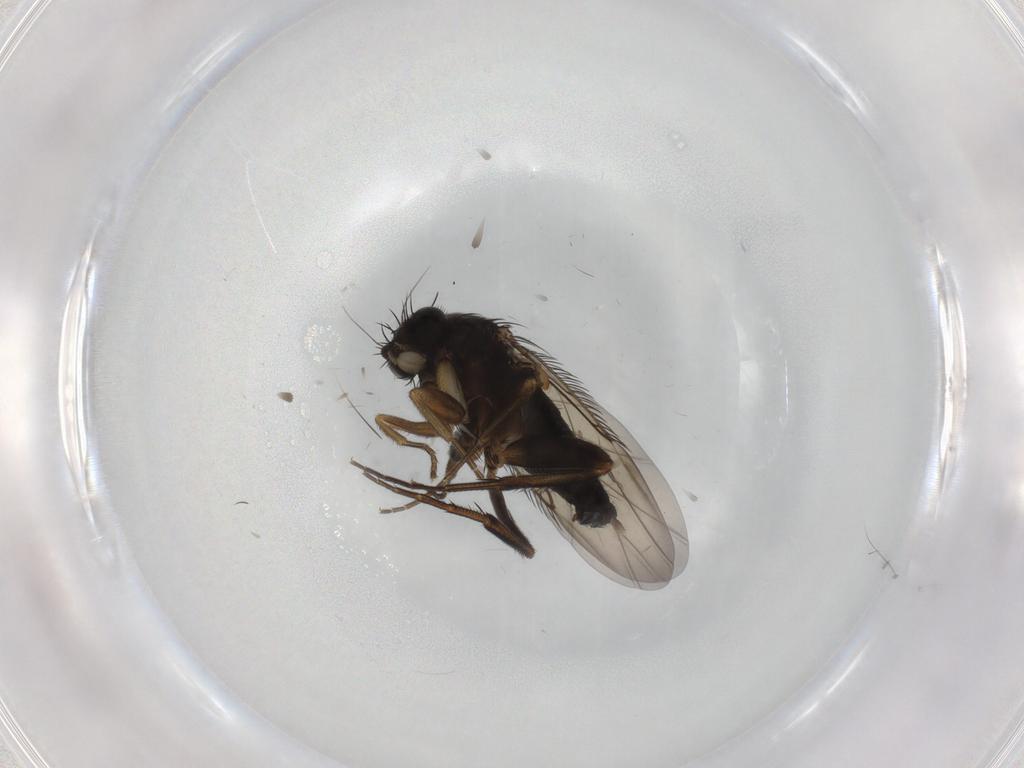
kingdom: Animalia
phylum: Arthropoda
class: Insecta
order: Diptera
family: Phoridae
